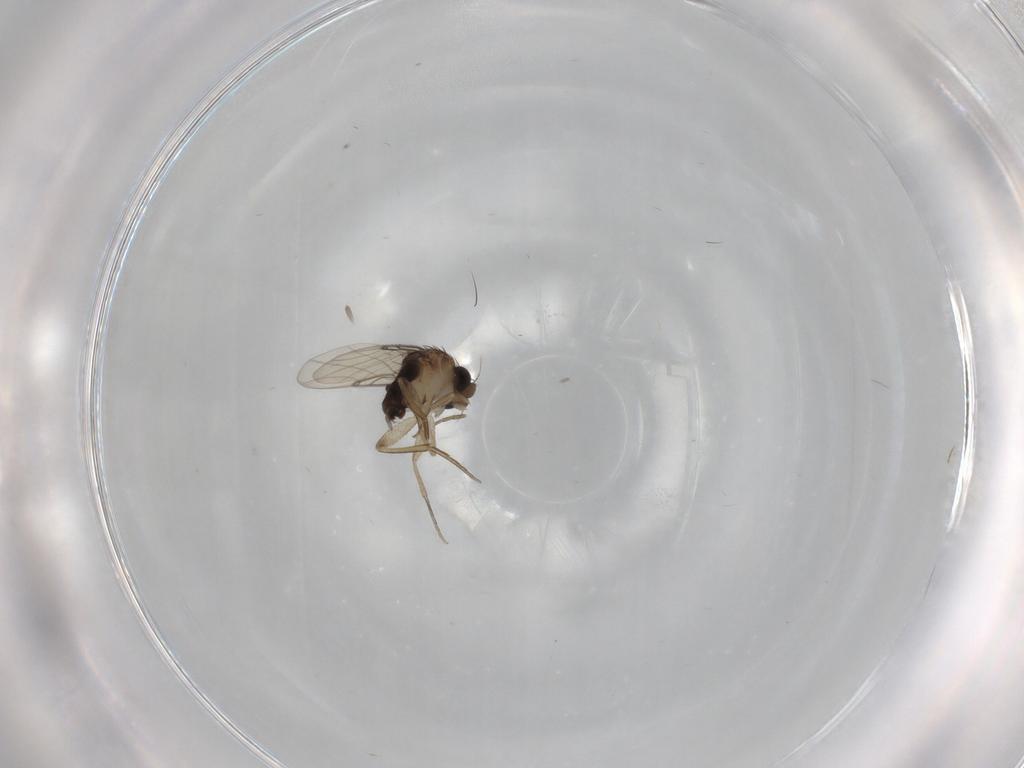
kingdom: Animalia
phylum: Arthropoda
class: Insecta
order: Diptera
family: Phoridae
